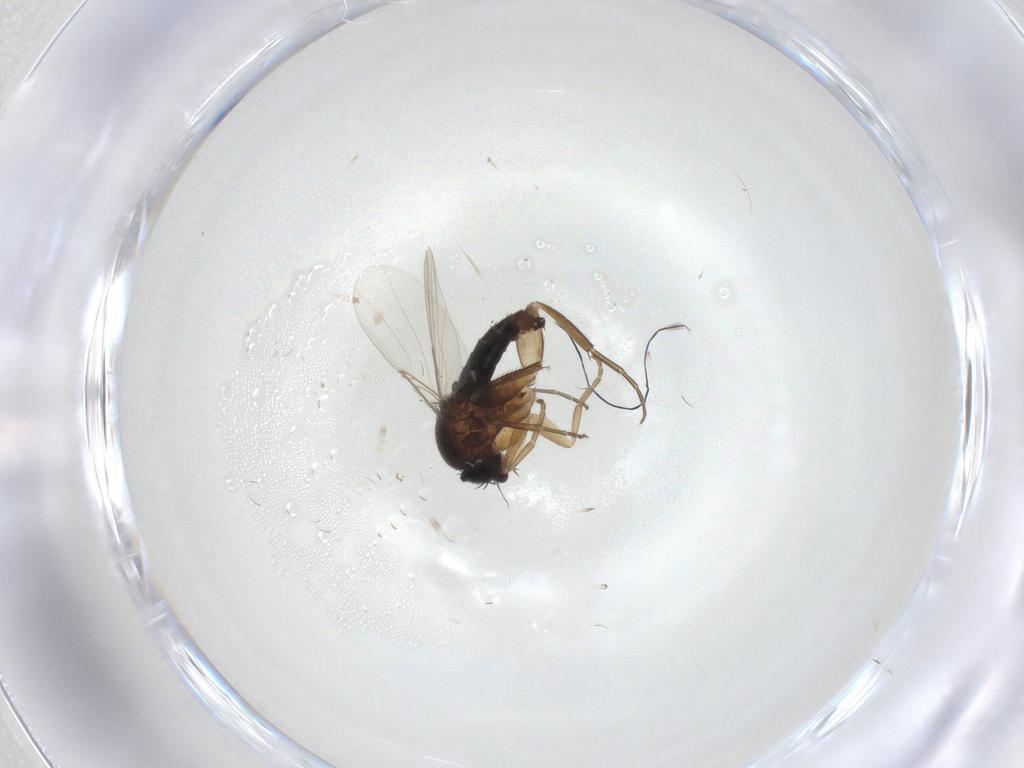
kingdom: Animalia
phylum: Arthropoda
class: Insecta
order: Diptera
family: Phoridae
